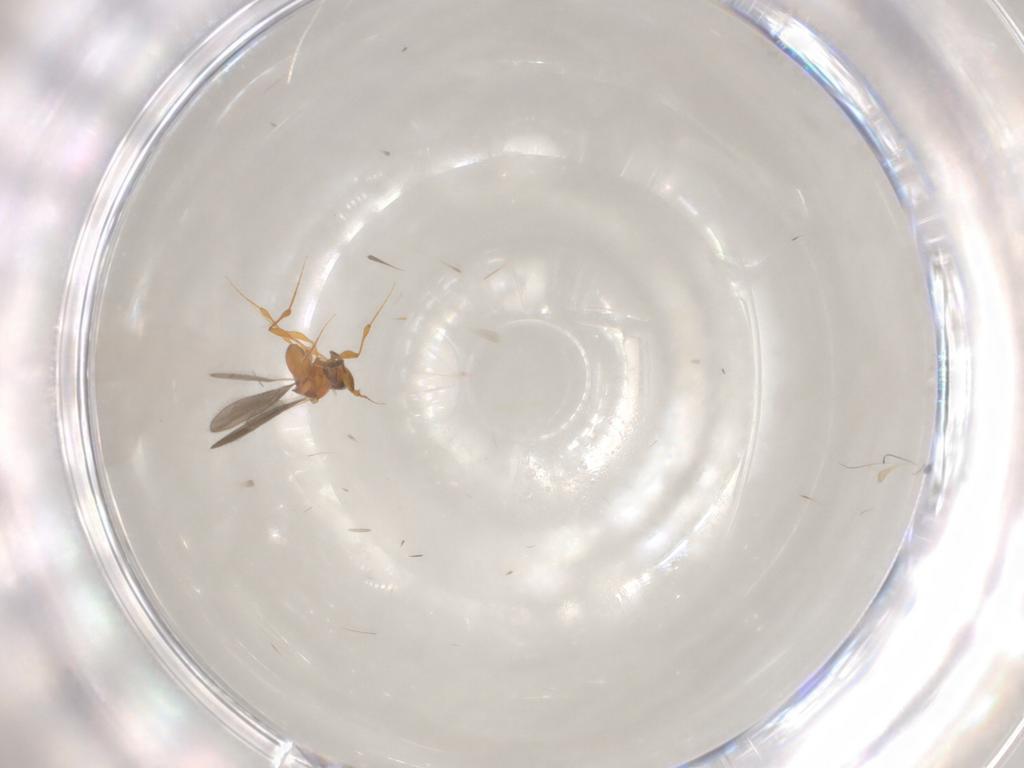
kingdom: Animalia
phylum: Arthropoda
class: Insecta
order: Hymenoptera
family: Platygastridae
